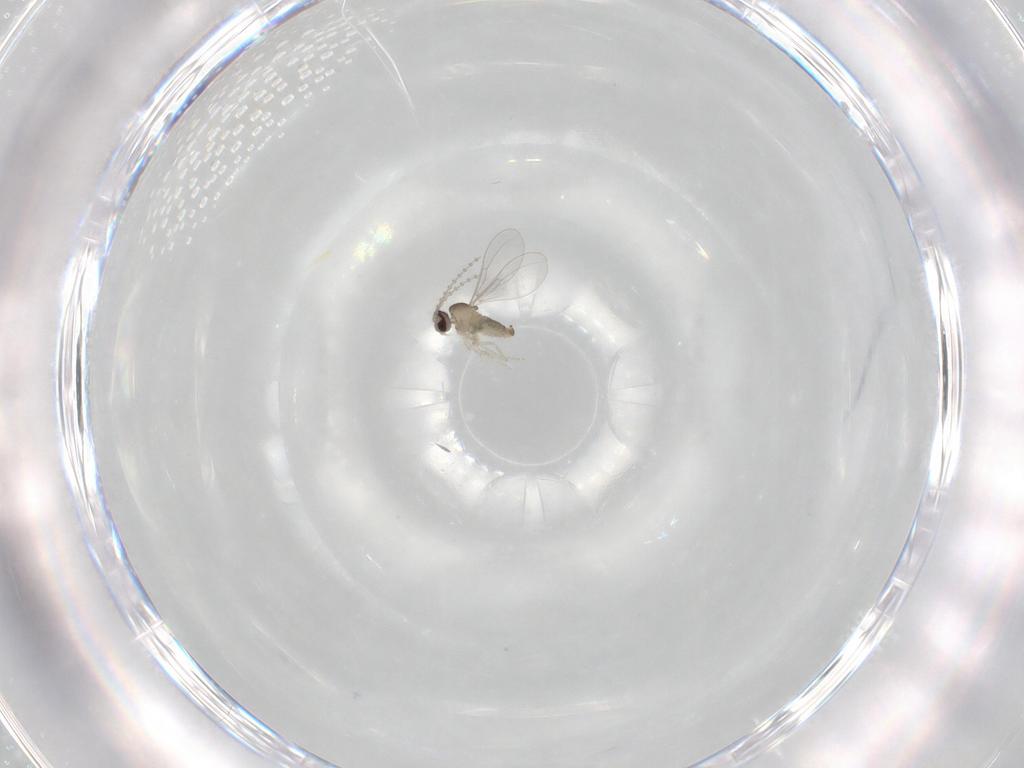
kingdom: Animalia
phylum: Arthropoda
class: Insecta
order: Diptera
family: Cecidomyiidae
